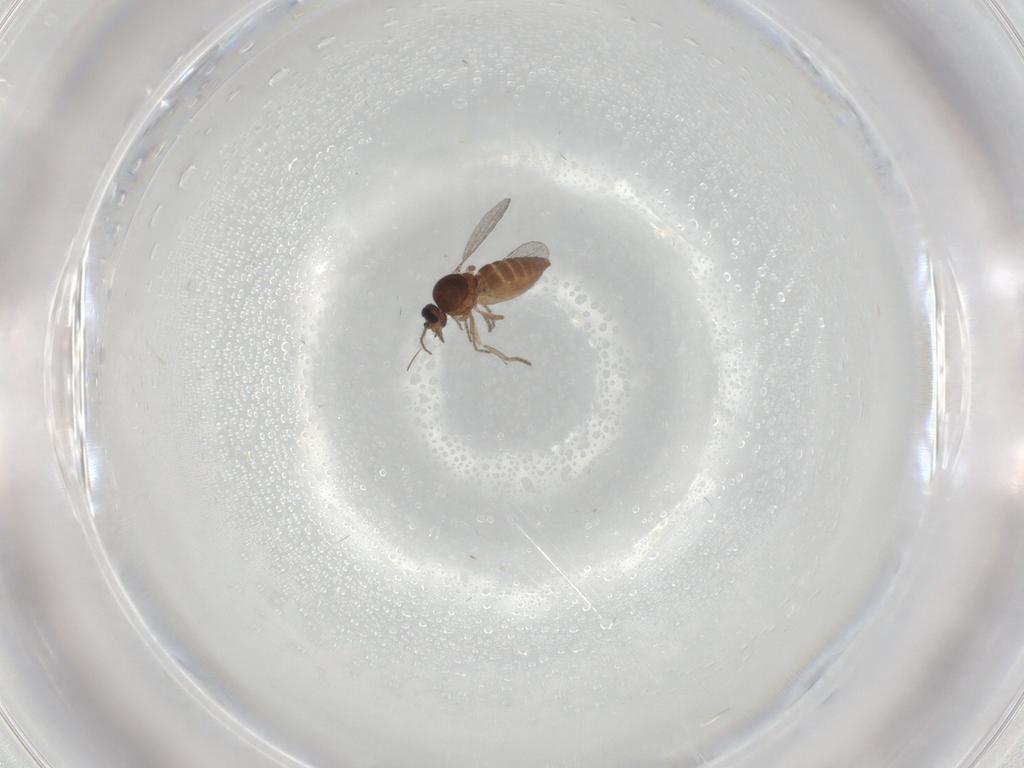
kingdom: Animalia
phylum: Arthropoda
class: Insecta
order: Diptera
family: Ceratopogonidae
